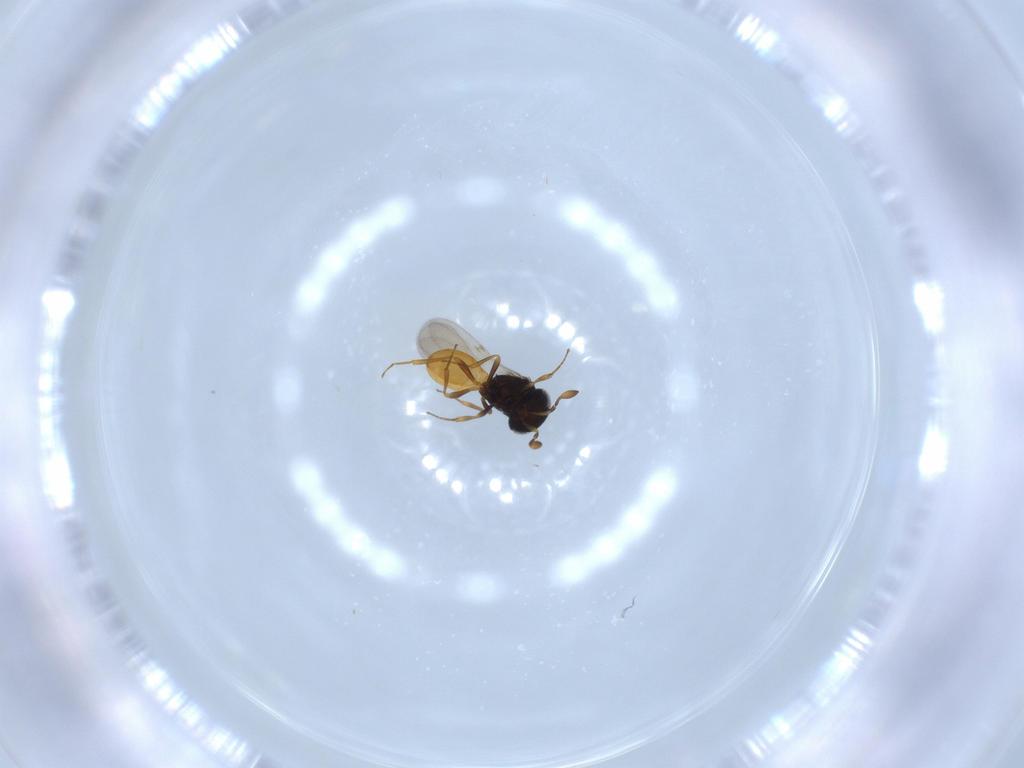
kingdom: Animalia
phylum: Arthropoda
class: Insecta
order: Hymenoptera
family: Scelionidae
